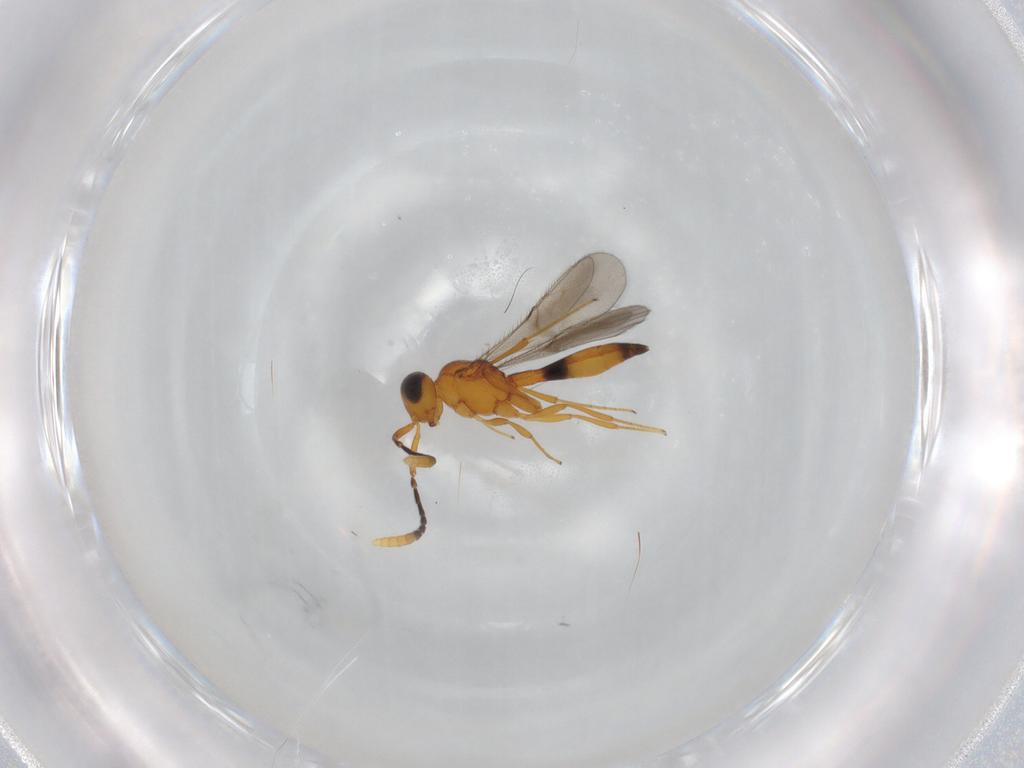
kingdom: Animalia
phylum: Arthropoda
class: Insecta
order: Hymenoptera
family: Scelionidae
